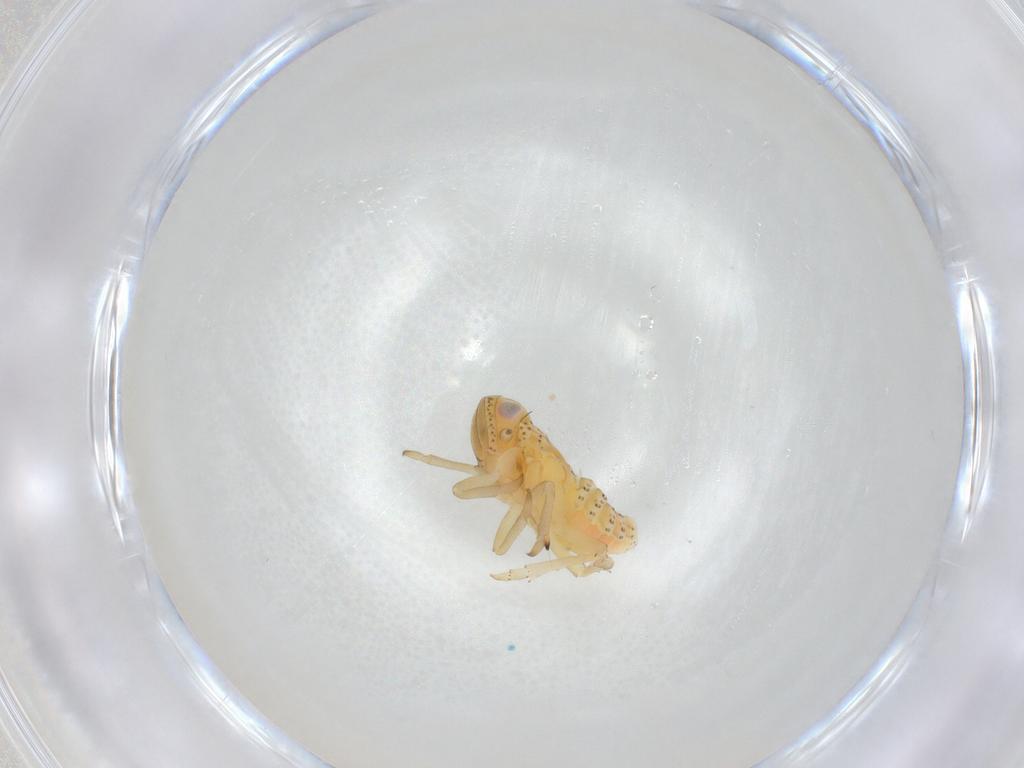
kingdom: Animalia
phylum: Arthropoda
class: Insecta
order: Hemiptera
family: Tropiduchidae
